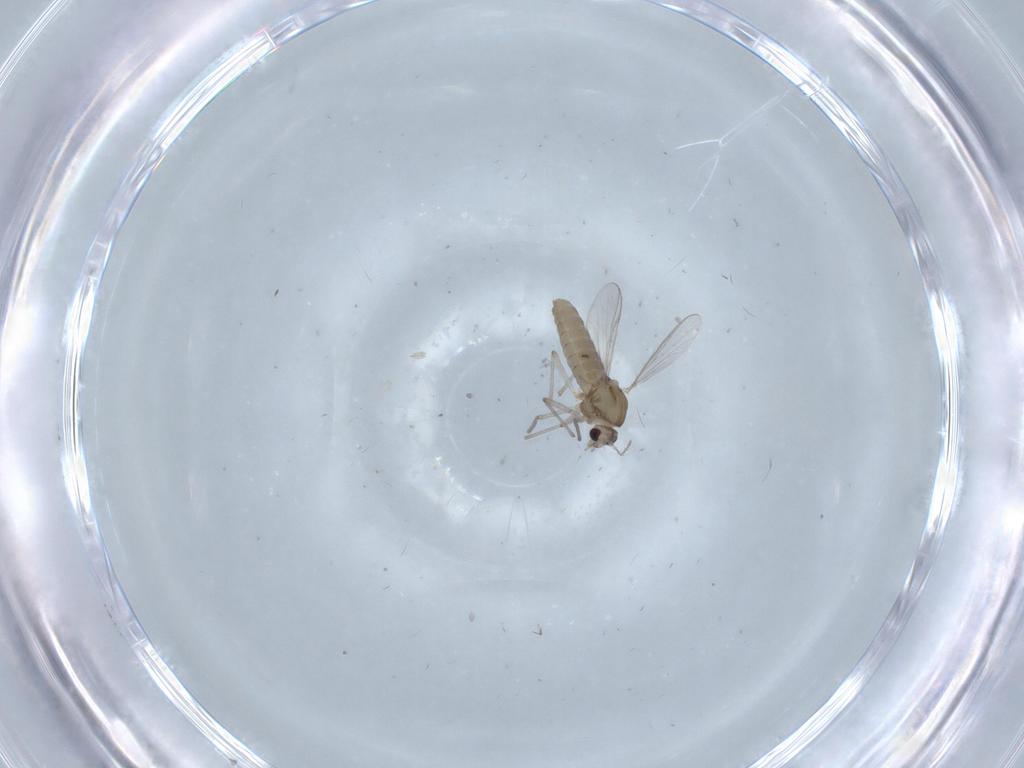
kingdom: Animalia
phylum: Arthropoda
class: Insecta
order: Diptera
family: Chironomidae
